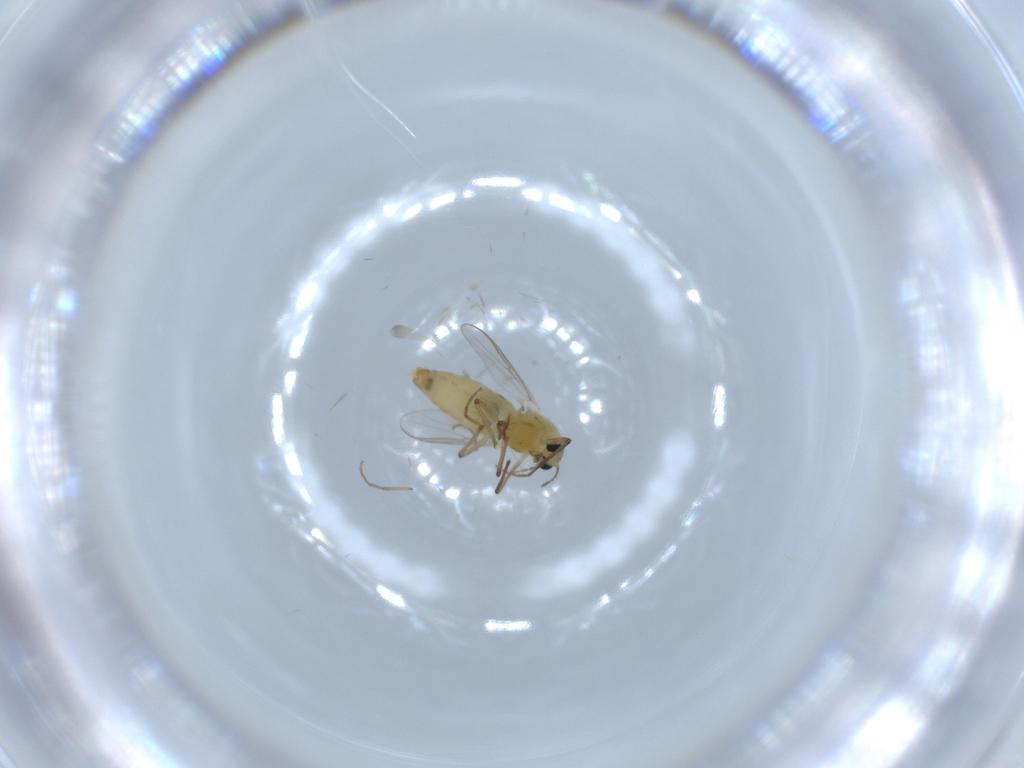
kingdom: Animalia
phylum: Arthropoda
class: Insecta
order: Diptera
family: Chironomidae
